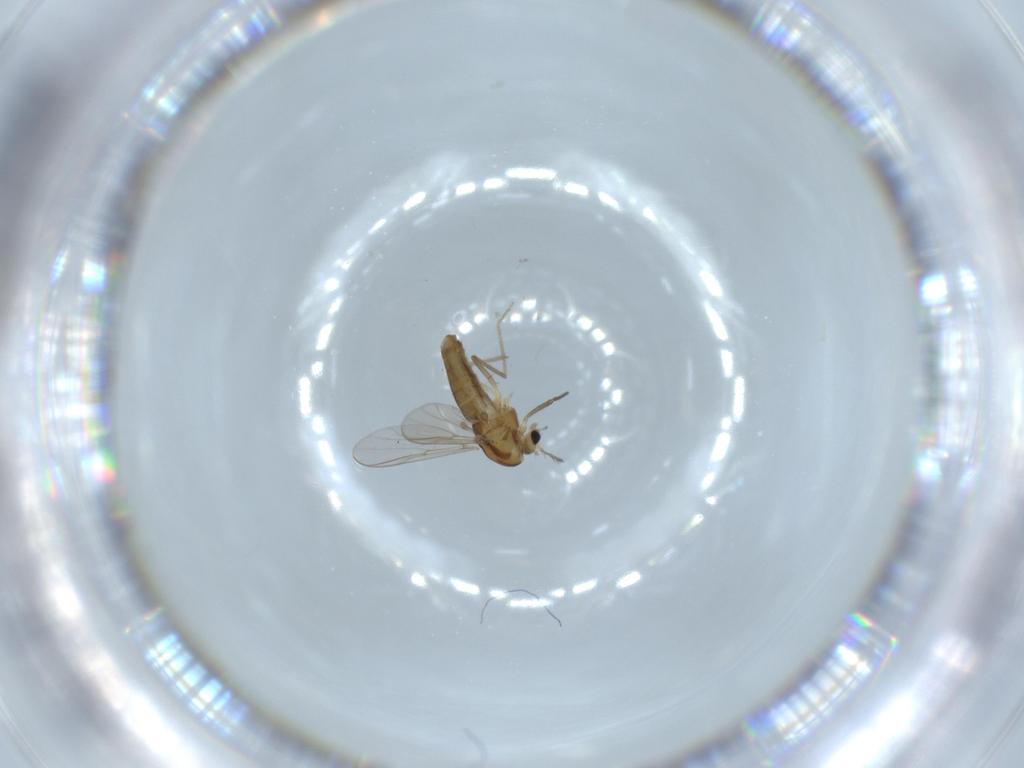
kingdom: Animalia
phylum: Arthropoda
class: Insecta
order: Diptera
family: Chironomidae
